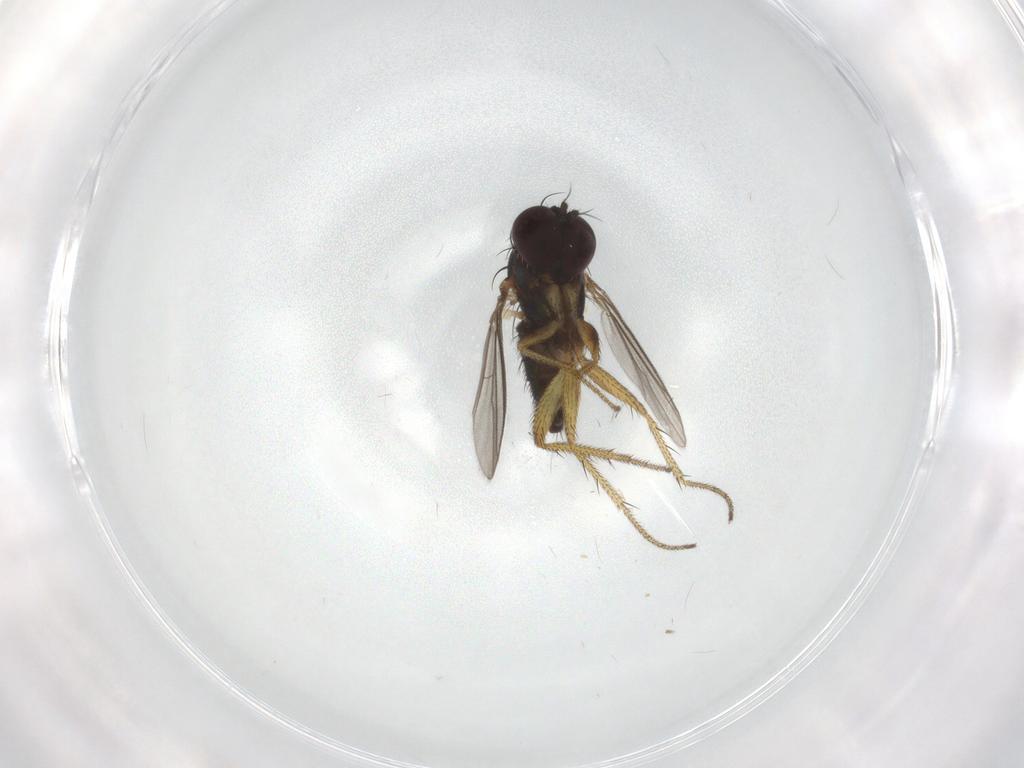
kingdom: Animalia
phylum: Arthropoda
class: Insecta
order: Diptera
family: Dolichopodidae
